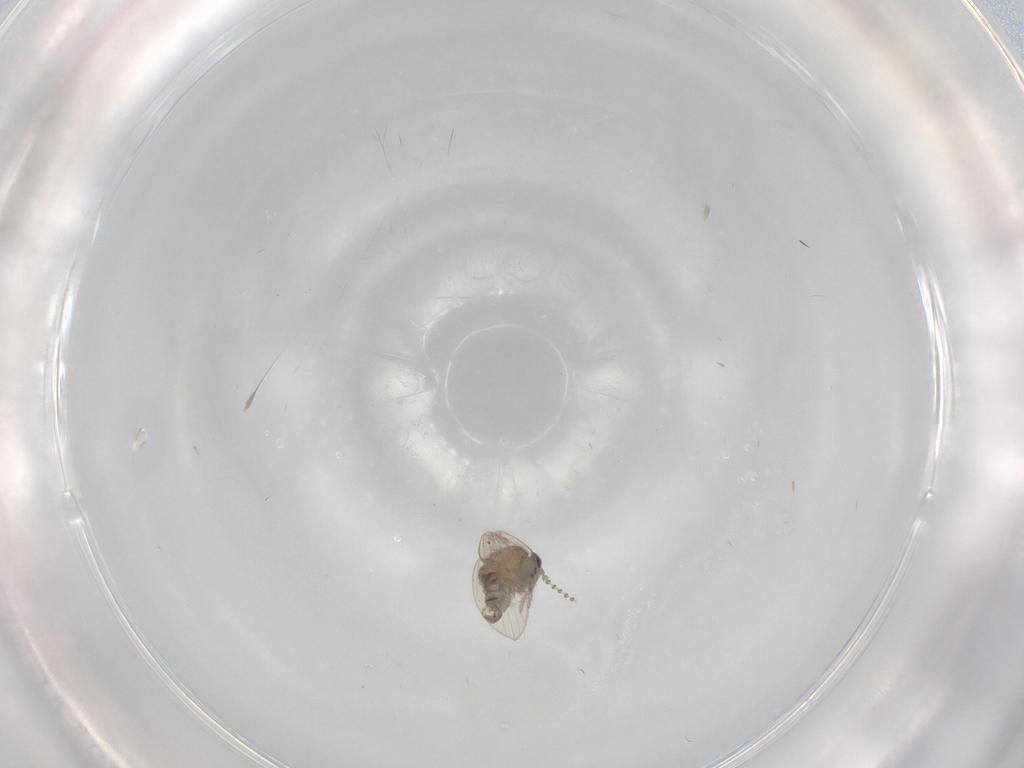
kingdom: Animalia
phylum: Arthropoda
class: Insecta
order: Diptera
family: Psychodidae
